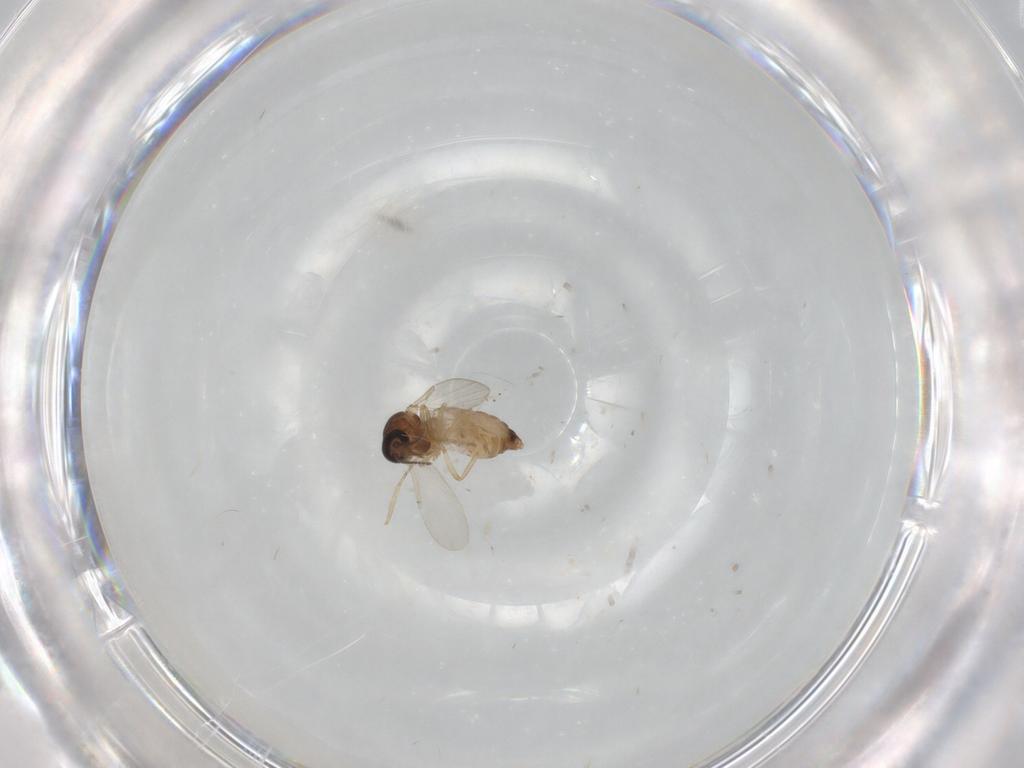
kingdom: Animalia
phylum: Arthropoda
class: Insecta
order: Diptera
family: Ceratopogonidae
